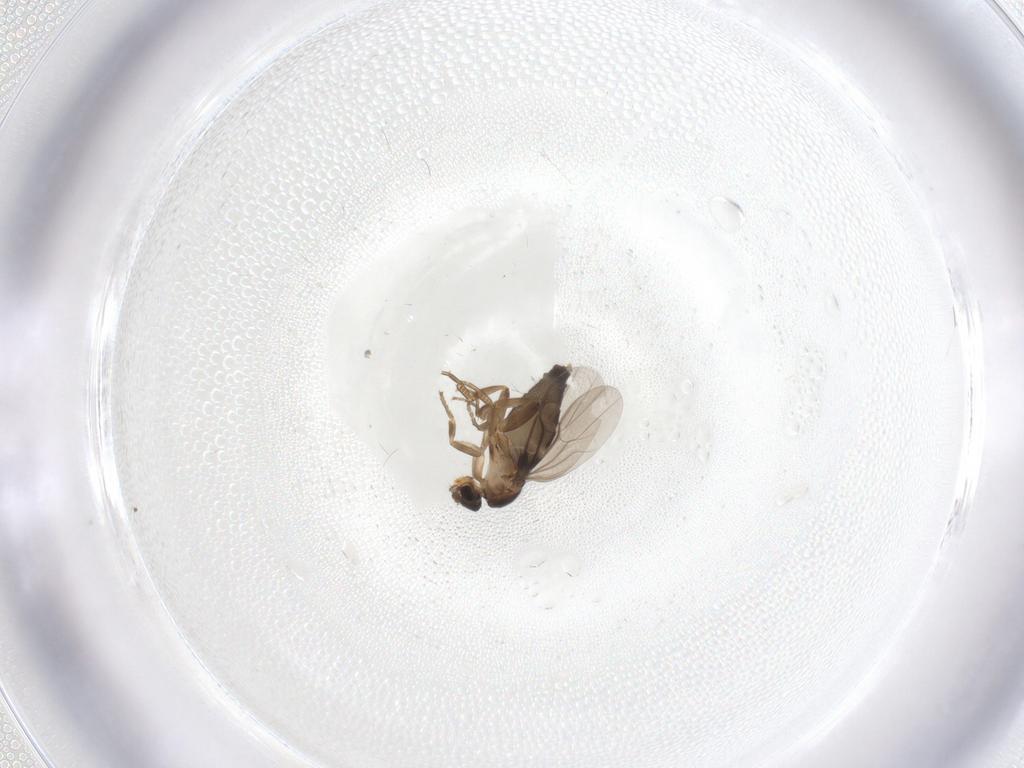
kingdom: Animalia
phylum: Arthropoda
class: Insecta
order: Diptera
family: Phoridae
